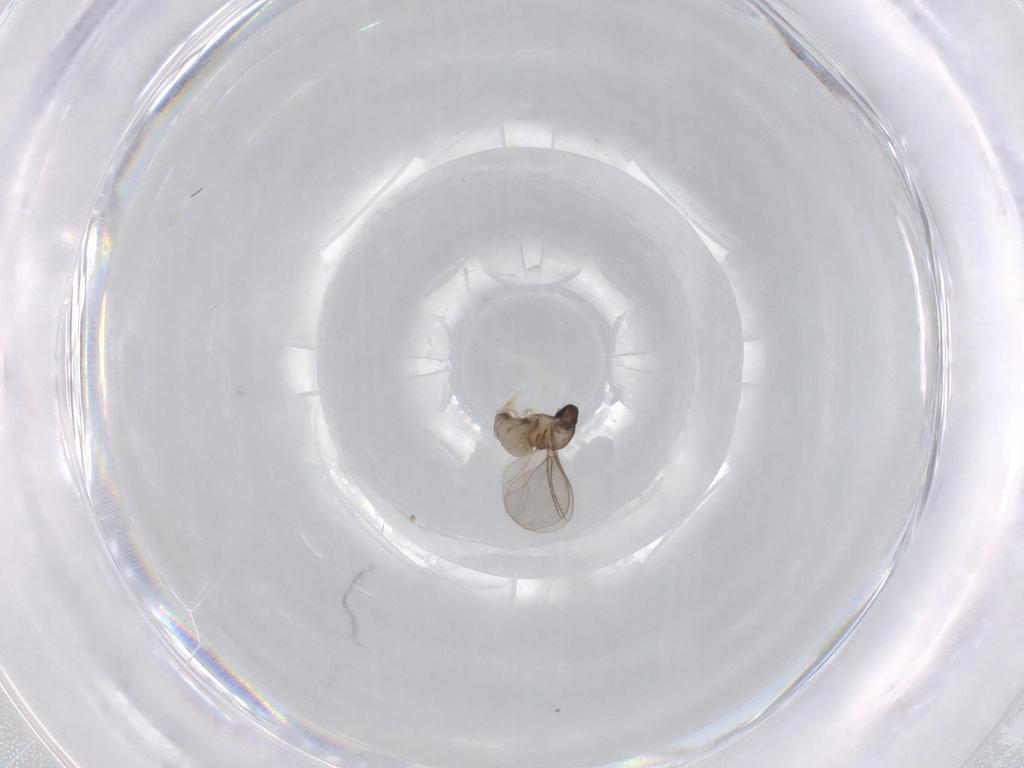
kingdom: Animalia
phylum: Arthropoda
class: Insecta
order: Diptera
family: Cecidomyiidae
